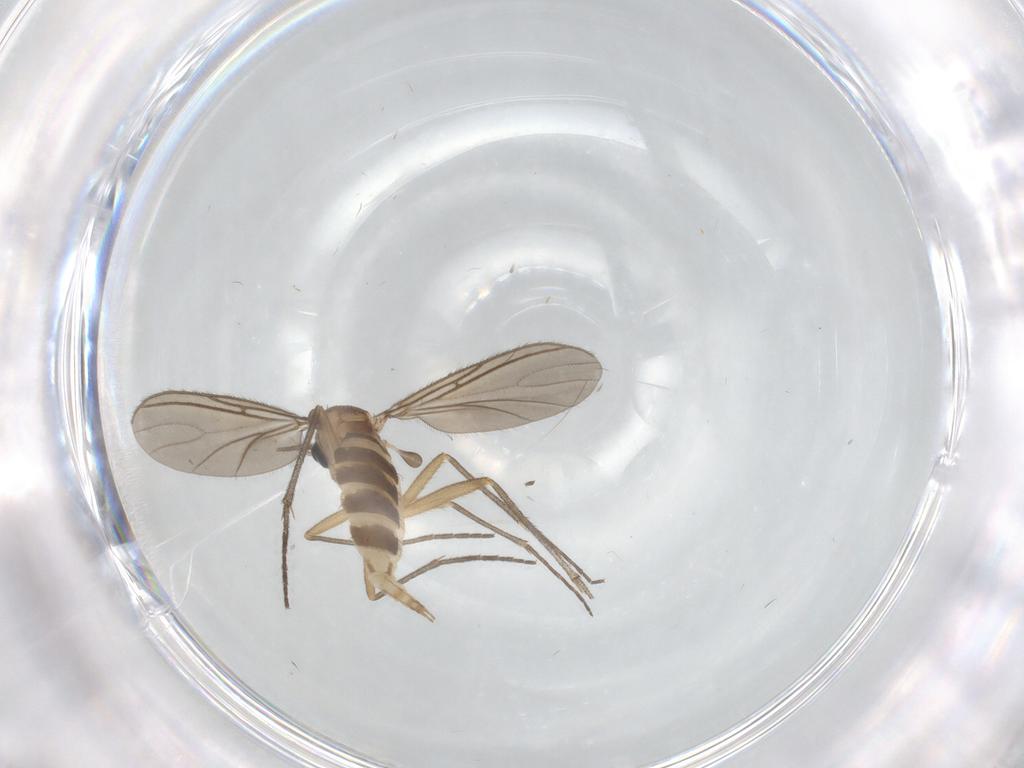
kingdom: Animalia
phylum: Arthropoda
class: Insecta
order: Diptera
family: Sciaridae
